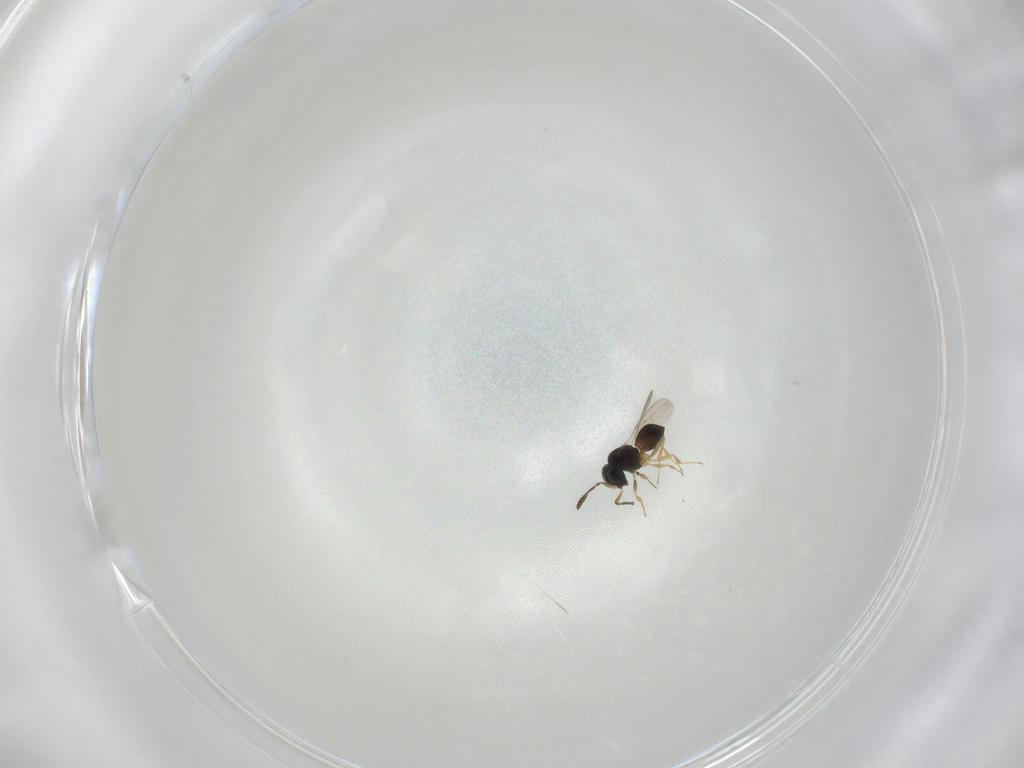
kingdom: Animalia
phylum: Arthropoda
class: Insecta
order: Hymenoptera
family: Scelionidae
